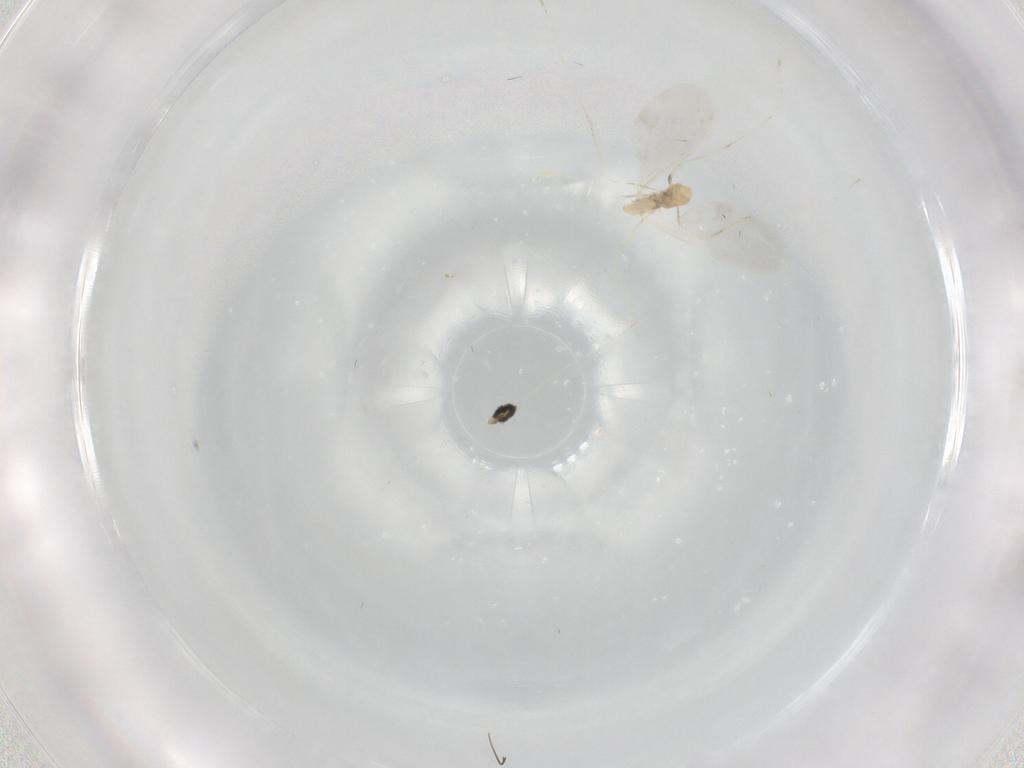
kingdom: Animalia
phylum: Arthropoda
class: Insecta
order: Diptera
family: Cecidomyiidae
